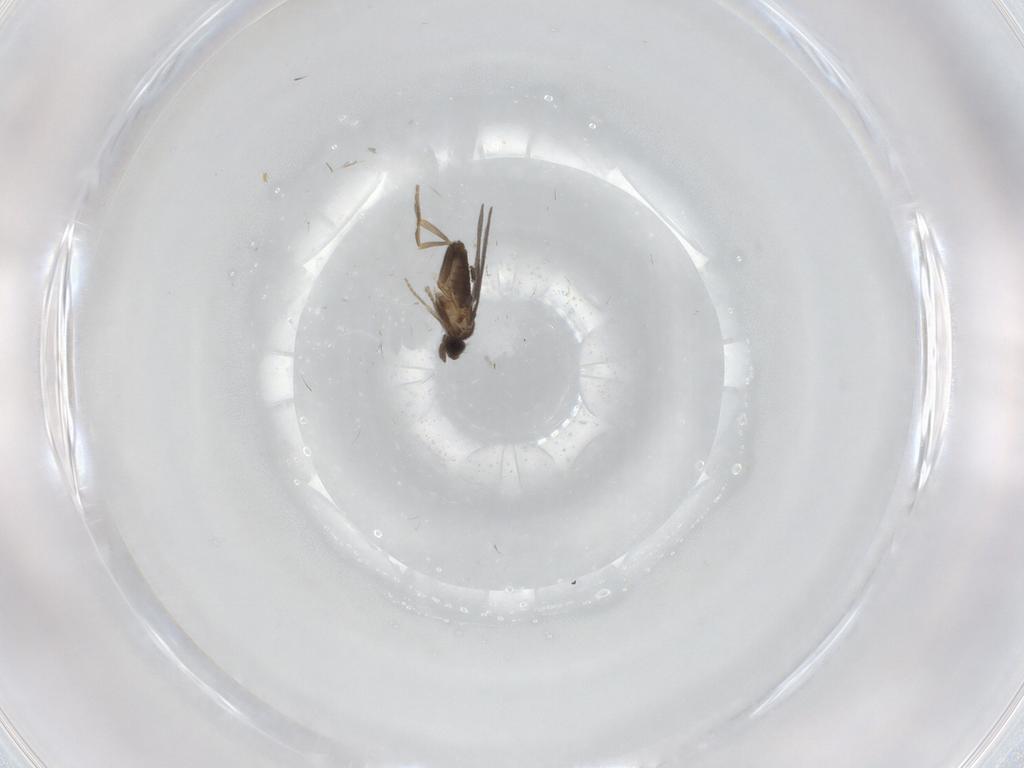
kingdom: Animalia
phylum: Arthropoda
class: Insecta
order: Diptera
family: Sciaridae
